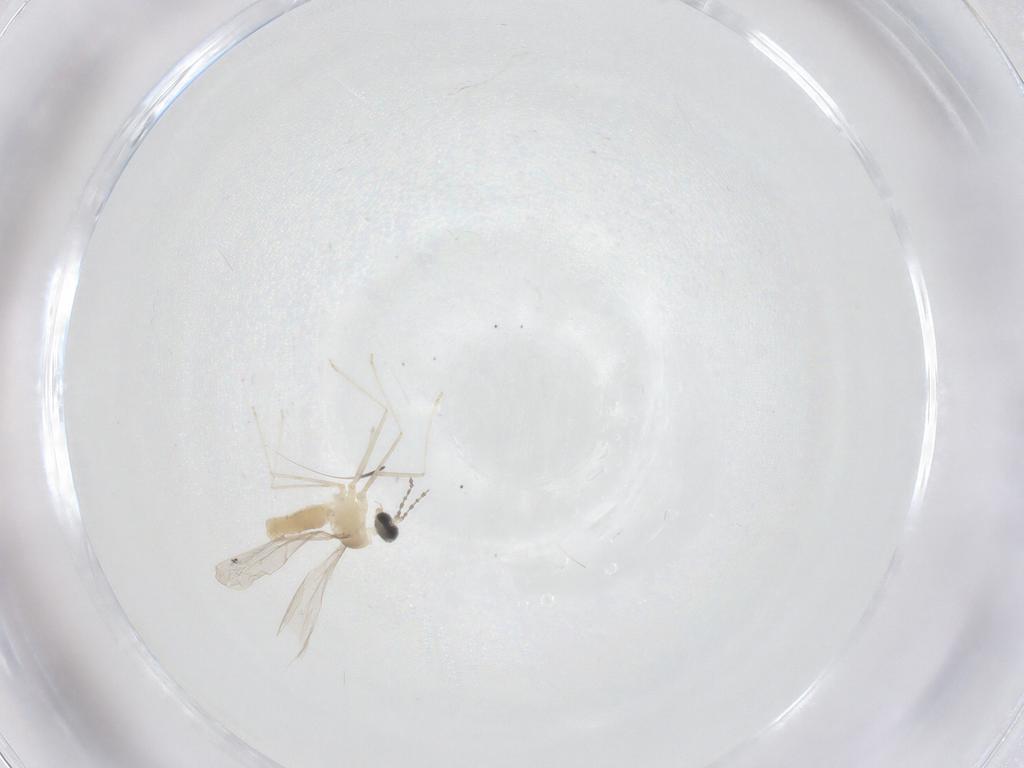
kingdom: Animalia
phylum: Arthropoda
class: Insecta
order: Diptera
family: Cecidomyiidae
